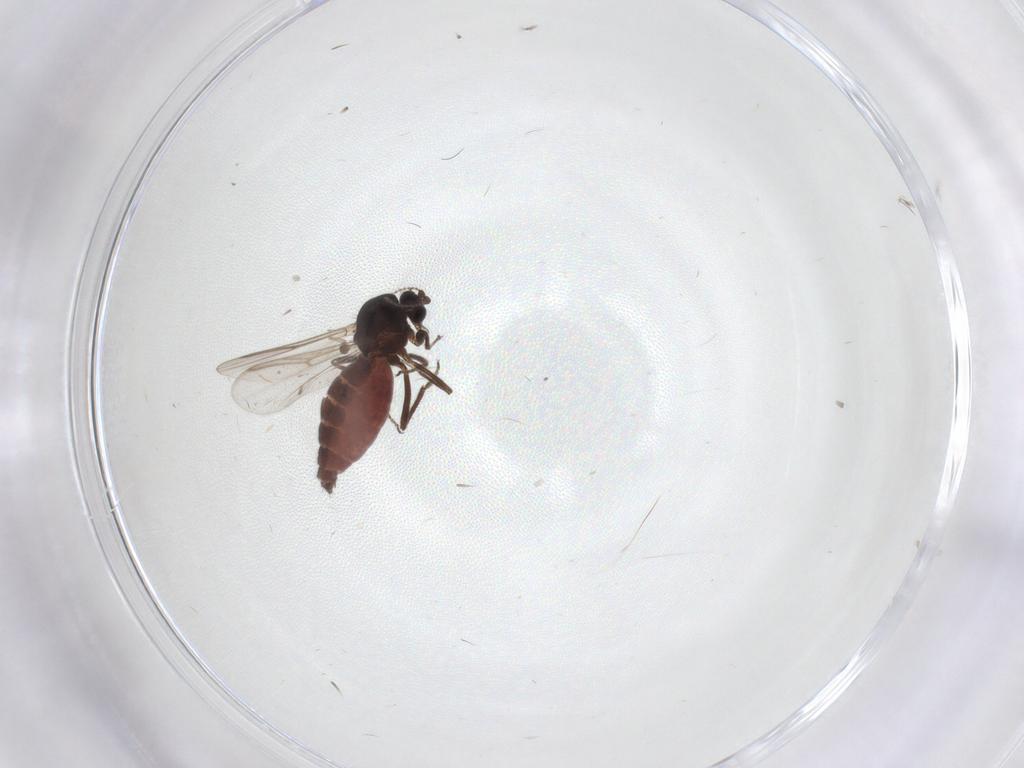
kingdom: Animalia
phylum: Arthropoda
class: Insecta
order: Diptera
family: Ceratopogonidae
